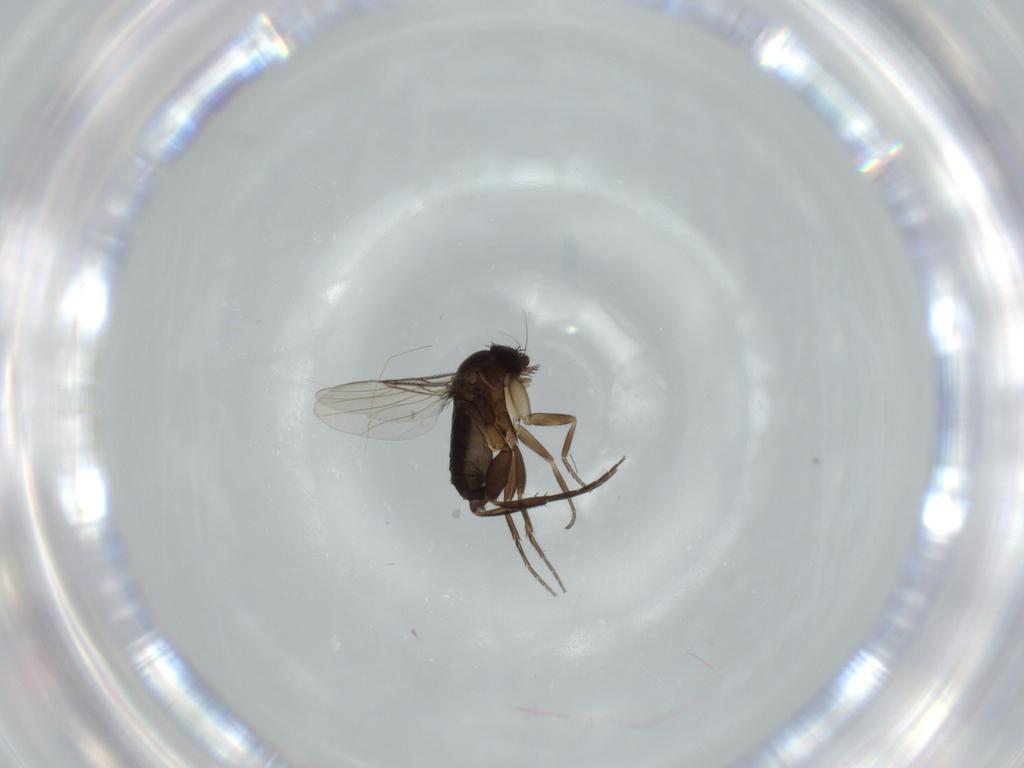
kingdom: Animalia
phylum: Arthropoda
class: Insecta
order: Diptera
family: Phoridae
